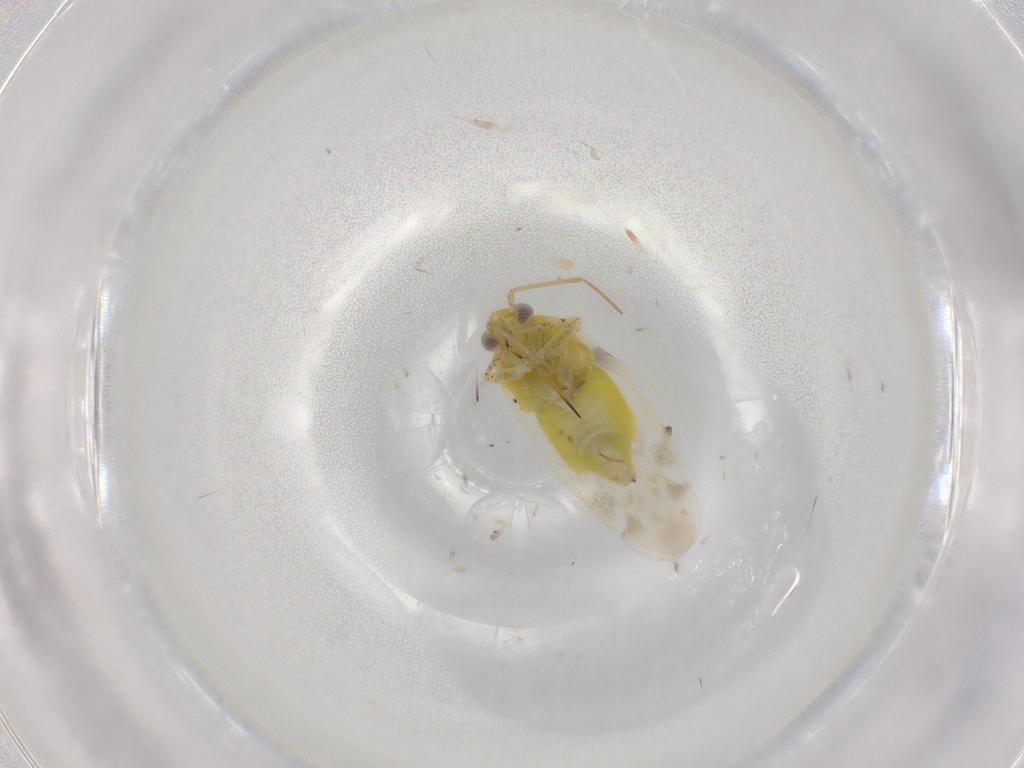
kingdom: Animalia
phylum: Arthropoda
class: Insecta
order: Hemiptera
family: Miridae
